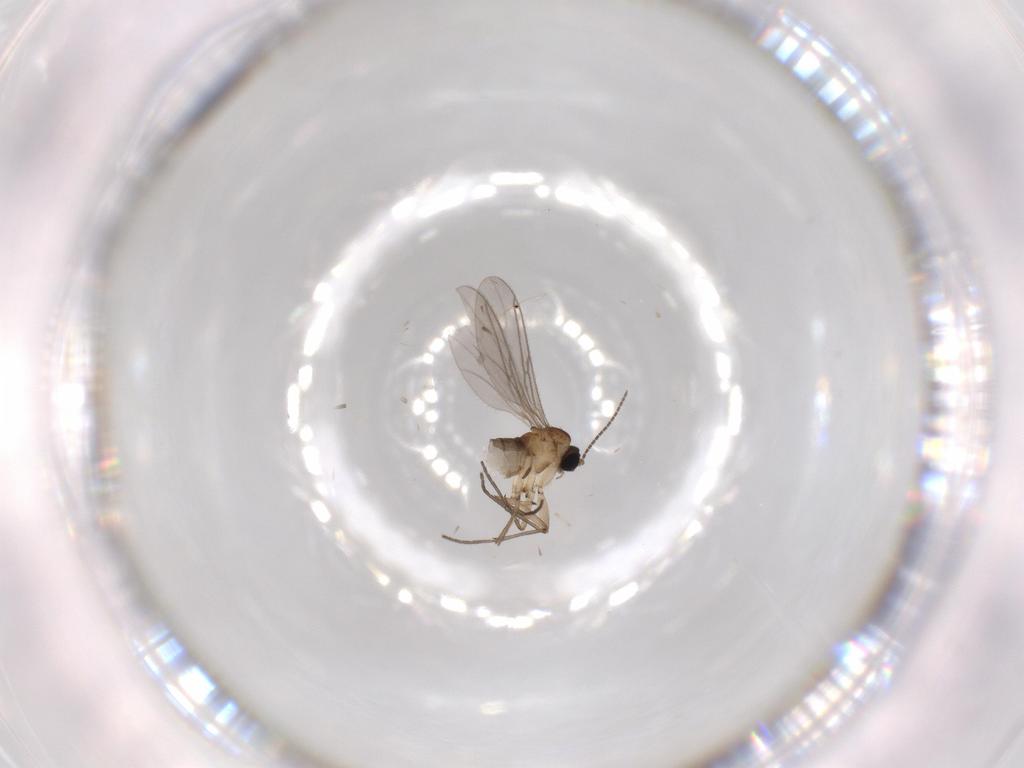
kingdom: Animalia
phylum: Arthropoda
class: Insecta
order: Diptera
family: Sciaridae
